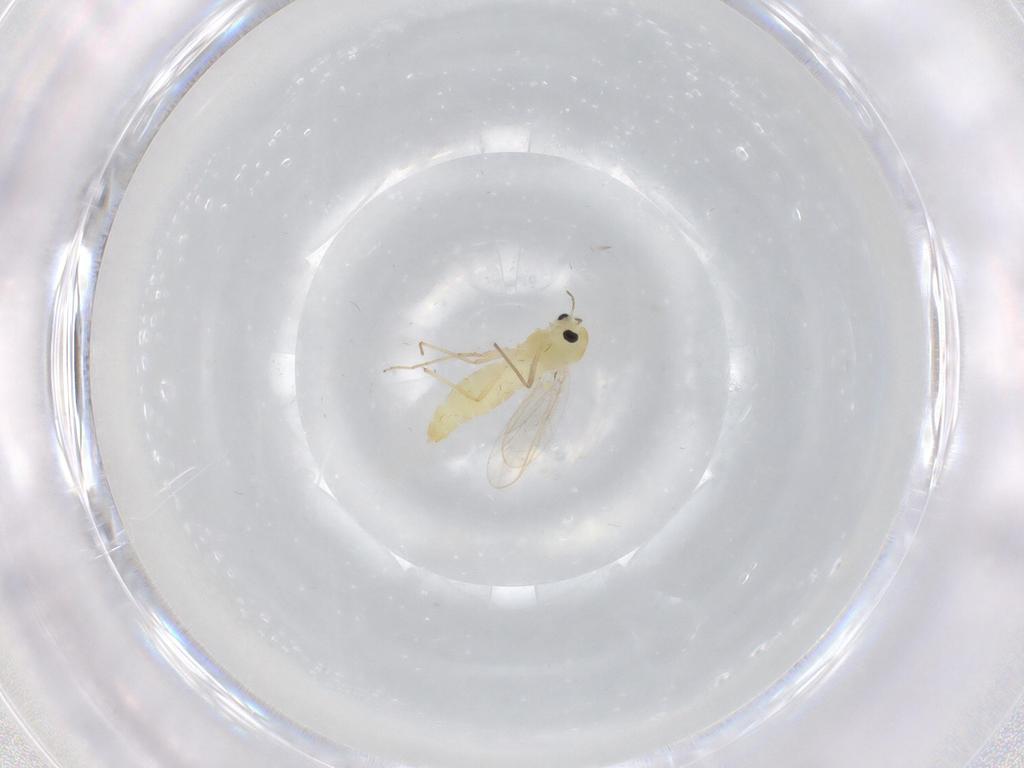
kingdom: Animalia
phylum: Arthropoda
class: Insecta
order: Diptera
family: Chironomidae
